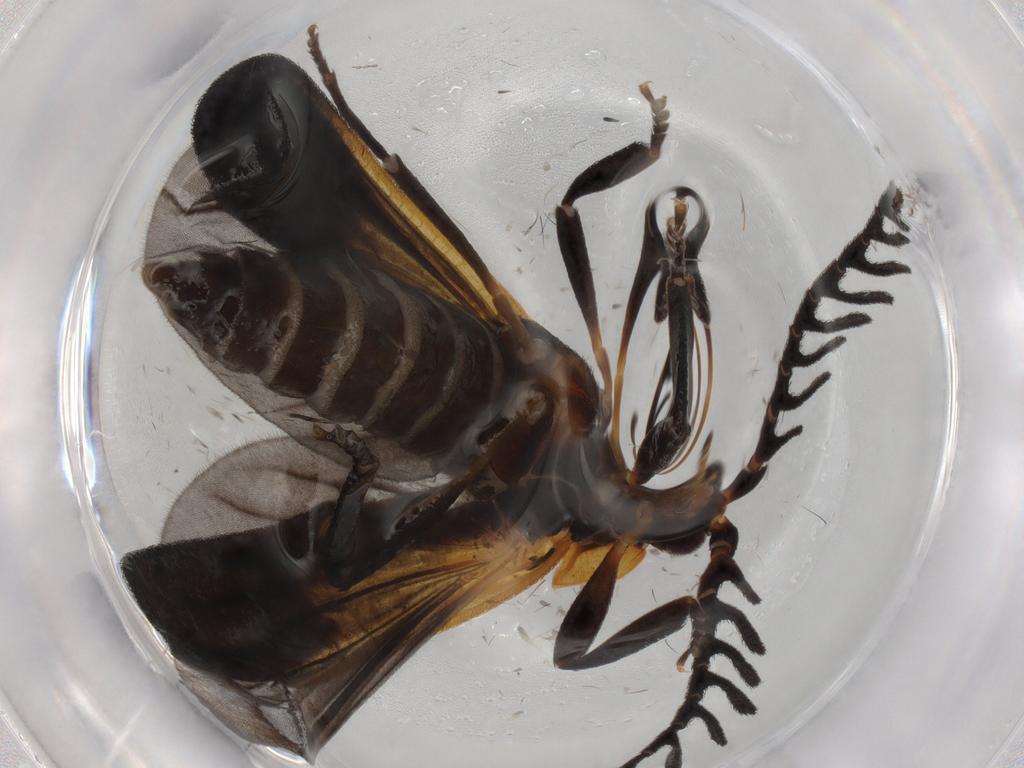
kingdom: Animalia
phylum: Arthropoda
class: Insecta
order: Coleoptera
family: Lycidae
